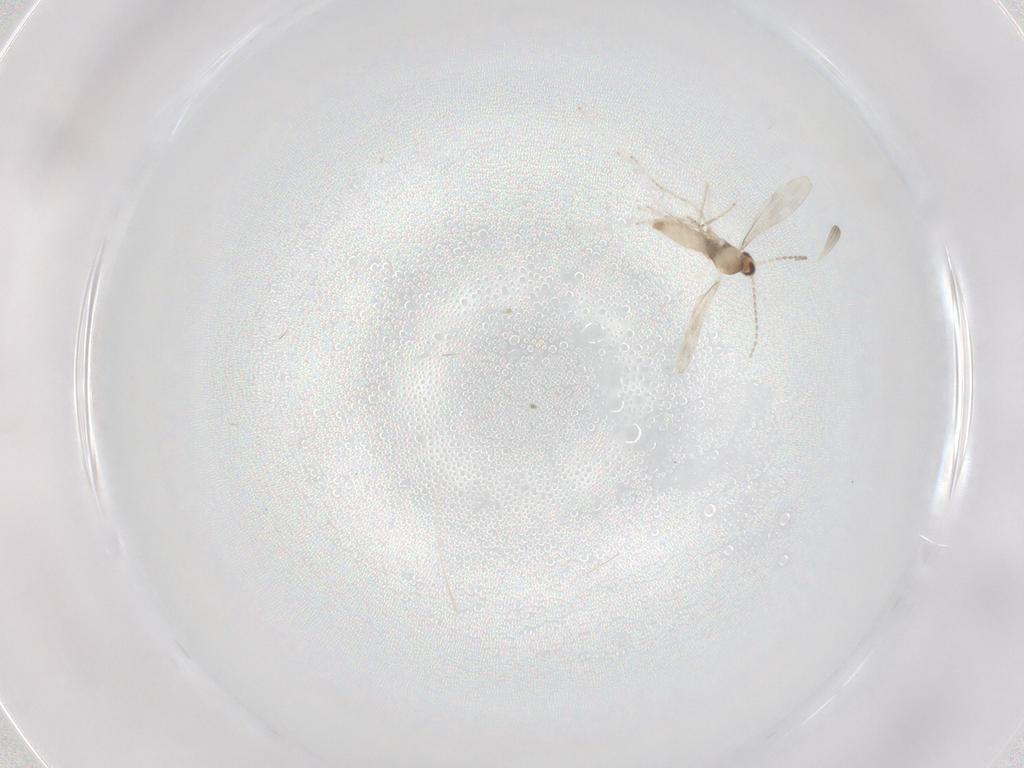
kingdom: Animalia
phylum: Arthropoda
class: Insecta
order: Diptera
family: Cecidomyiidae
